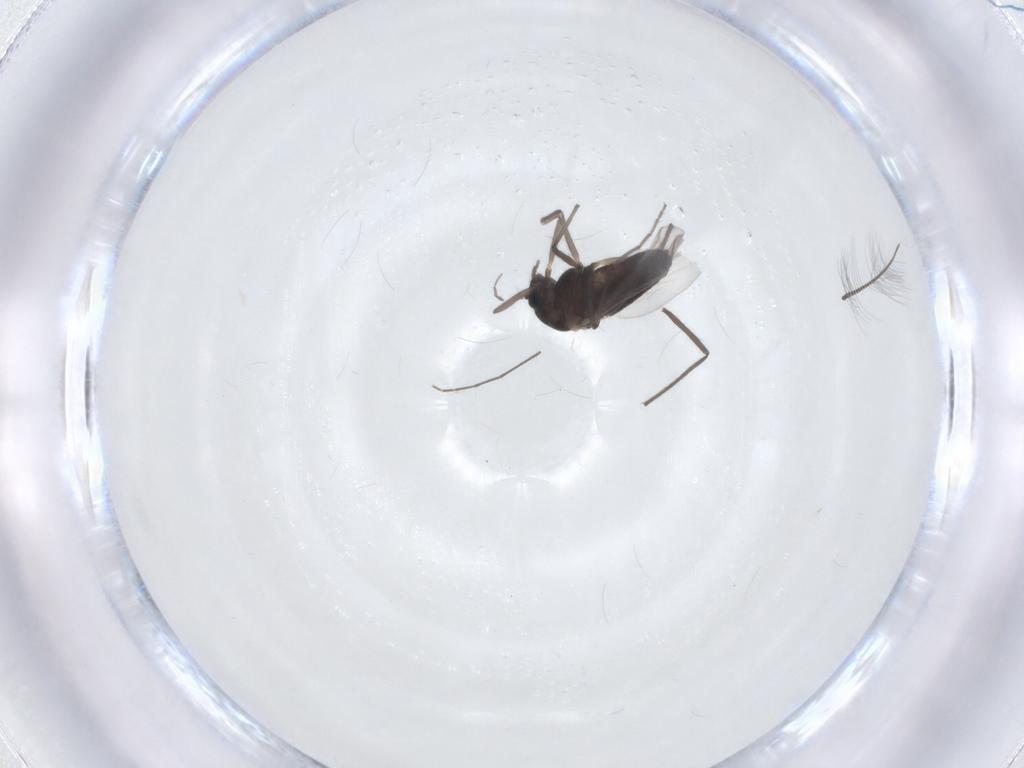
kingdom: Animalia
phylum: Arthropoda
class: Insecta
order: Diptera
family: Chironomidae
